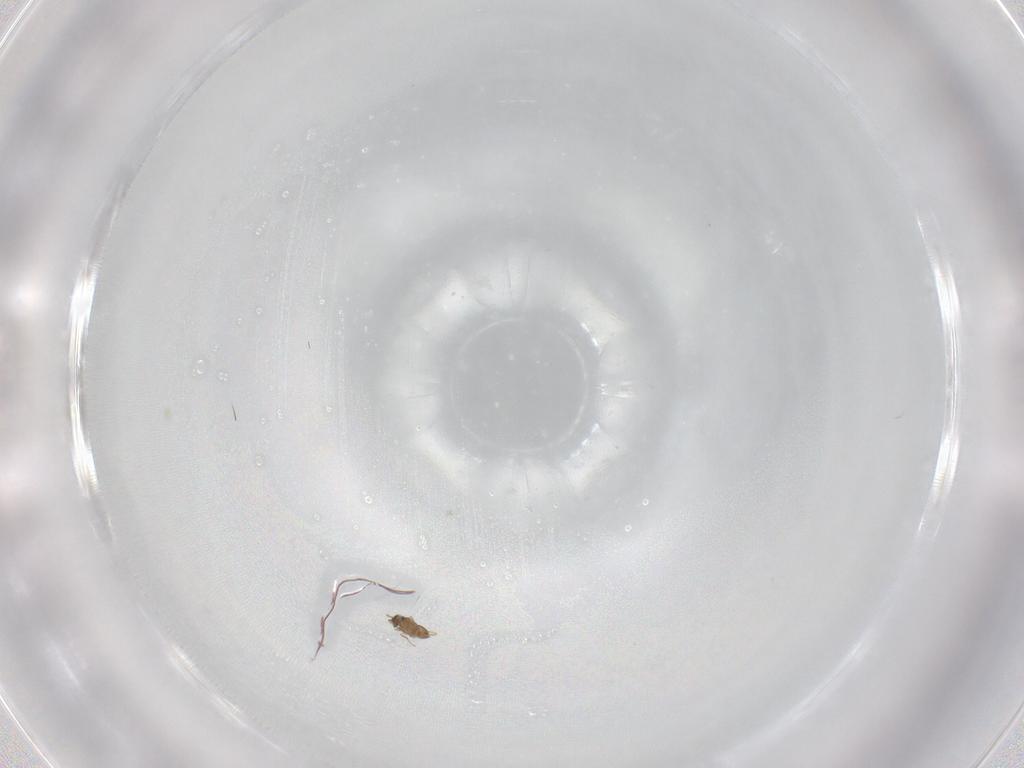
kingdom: Animalia
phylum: Arthropoda
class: Insecta
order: Hymenoptera
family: Mymaridae
